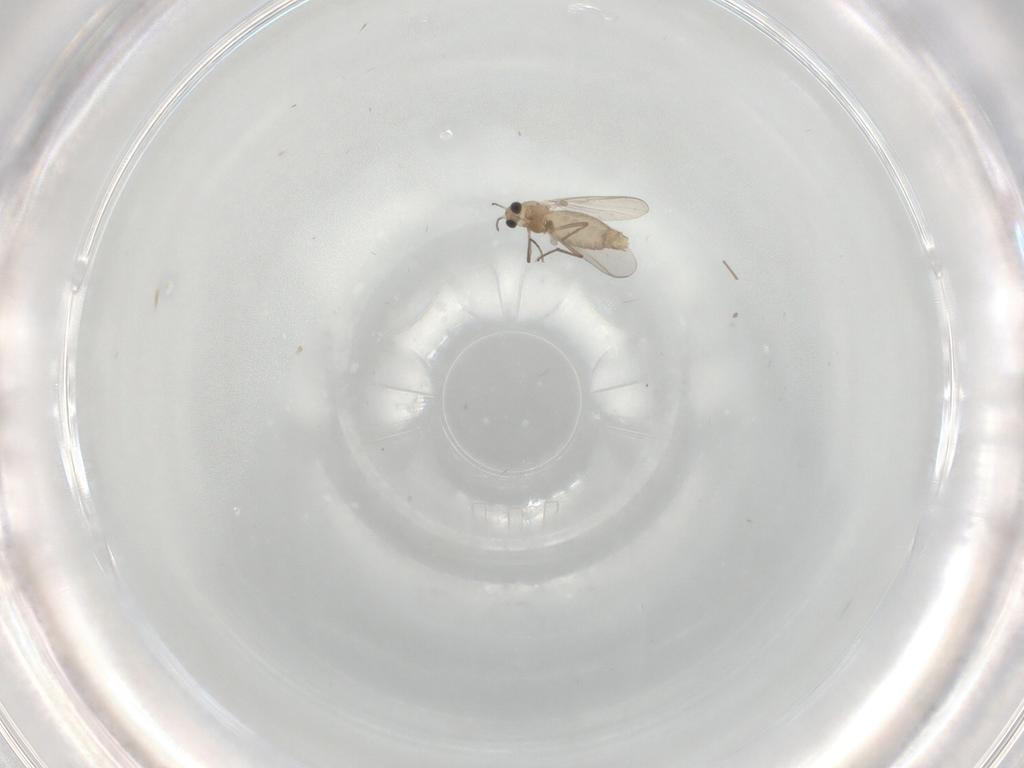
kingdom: Animalia
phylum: Arthropoda
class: Insecta
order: Diptera
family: Chironomidae
